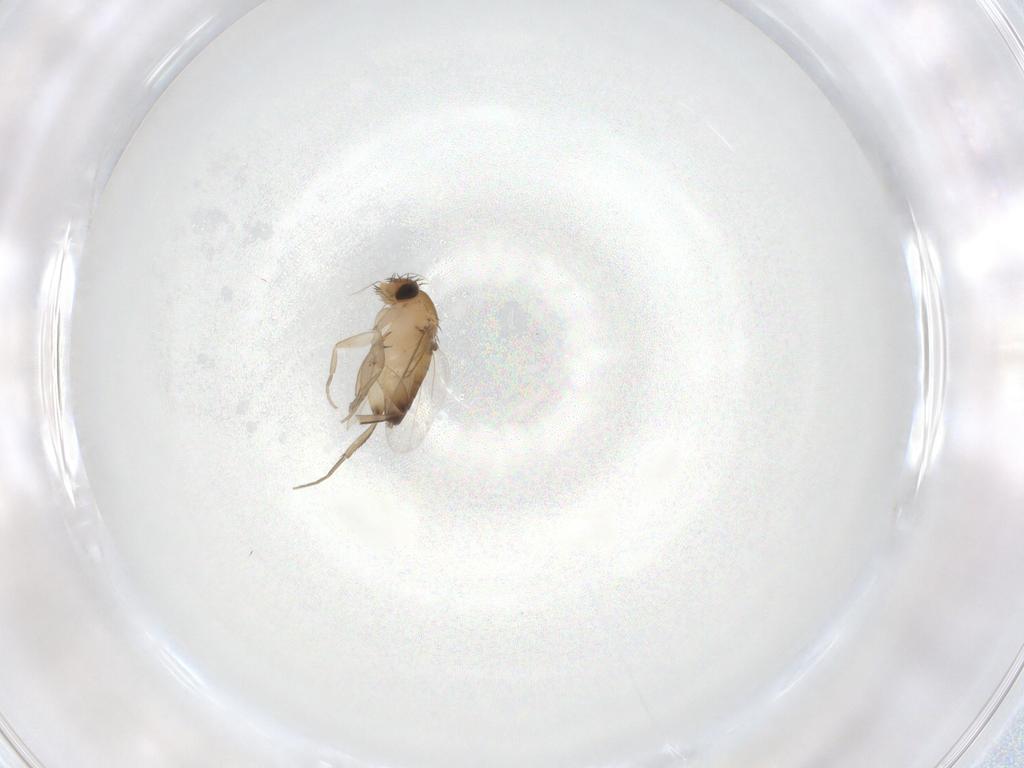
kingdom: Animalia
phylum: Arthropoda
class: Insecta
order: Diptera
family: Phoridae
